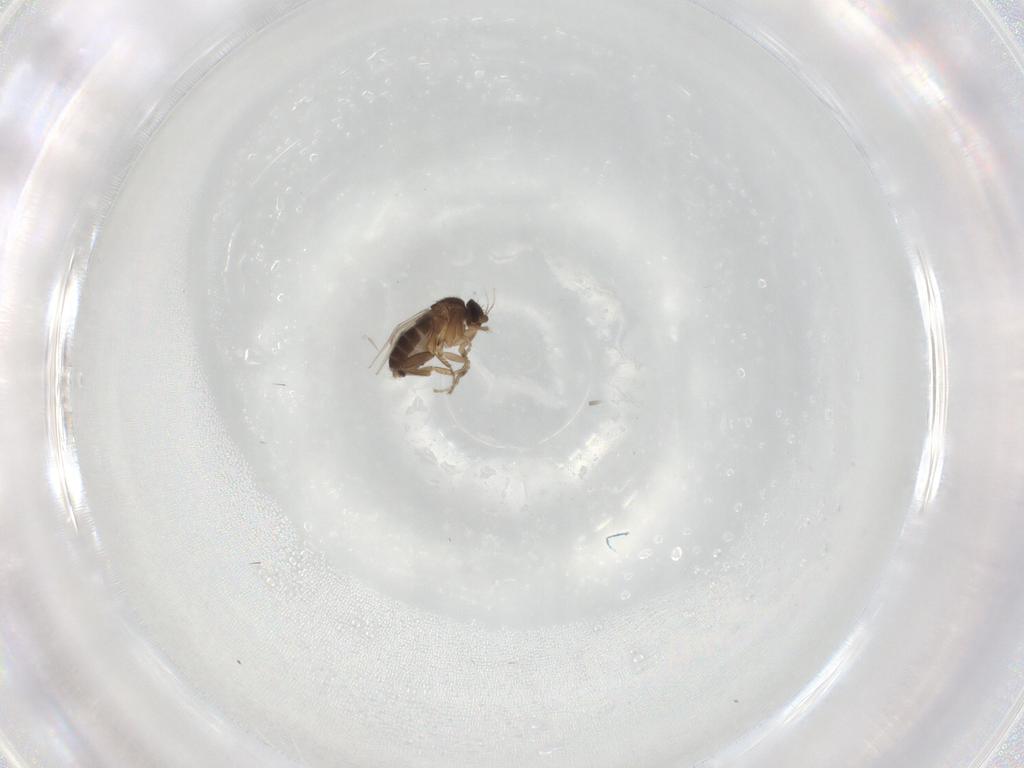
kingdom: Animalia
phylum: Arthropoda
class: Insecta
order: Diptera
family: Phoridae
